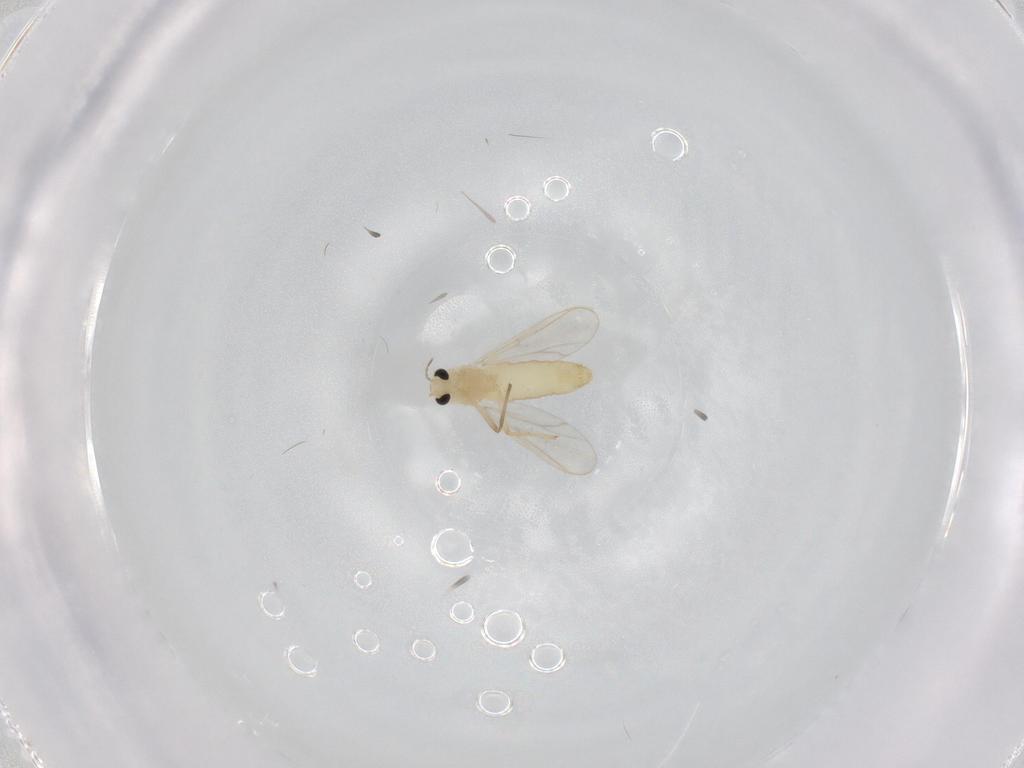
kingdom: Animalia
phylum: Arthropoda
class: Insecta
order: Diptera
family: Chironomidae
